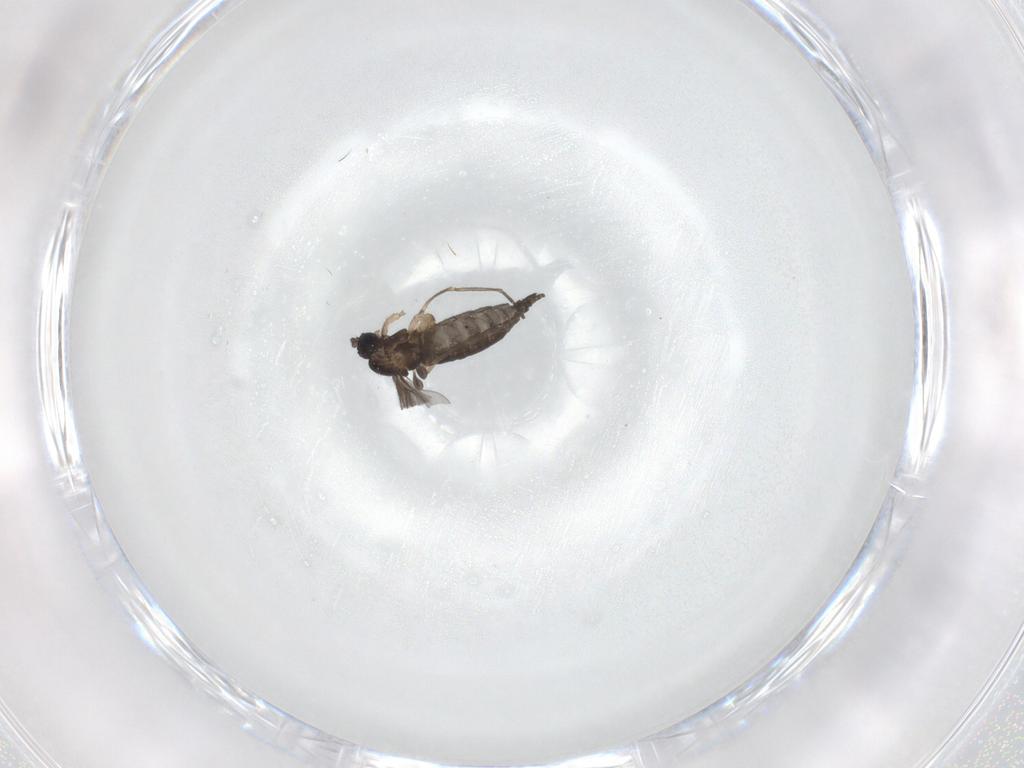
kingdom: Animalia
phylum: Arthropoda
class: Insecta
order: Diptera
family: Sciaridae
